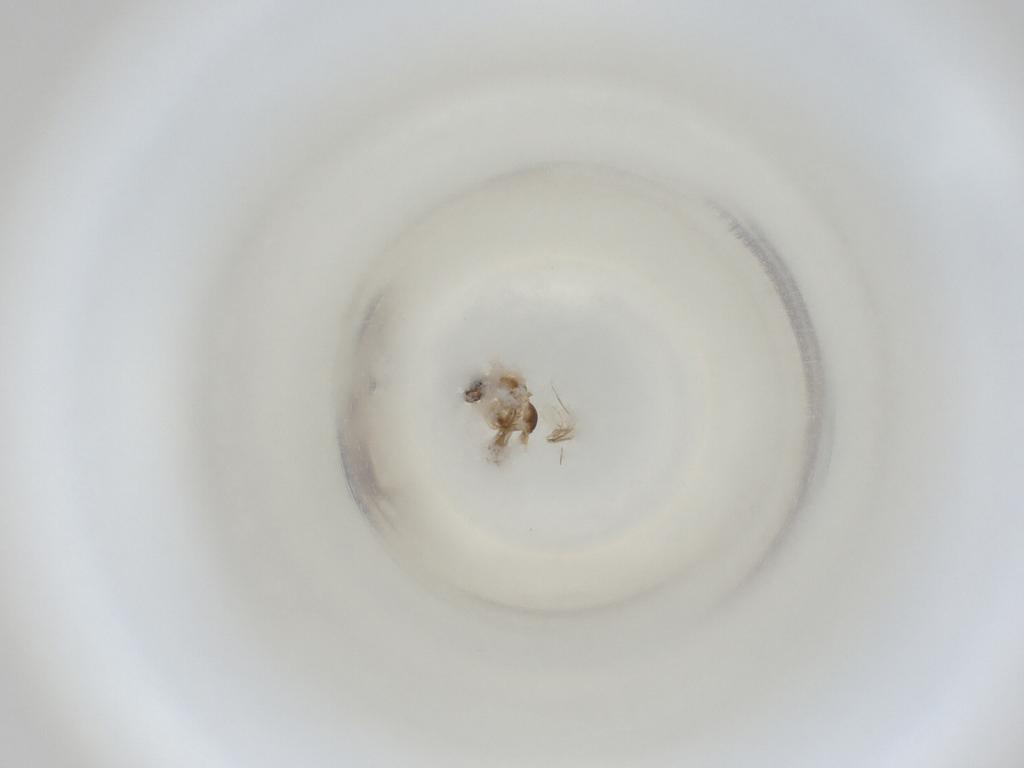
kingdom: Animalia
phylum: Arthropoda
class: Insecta
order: Diptera
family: Cecidomyiidae
